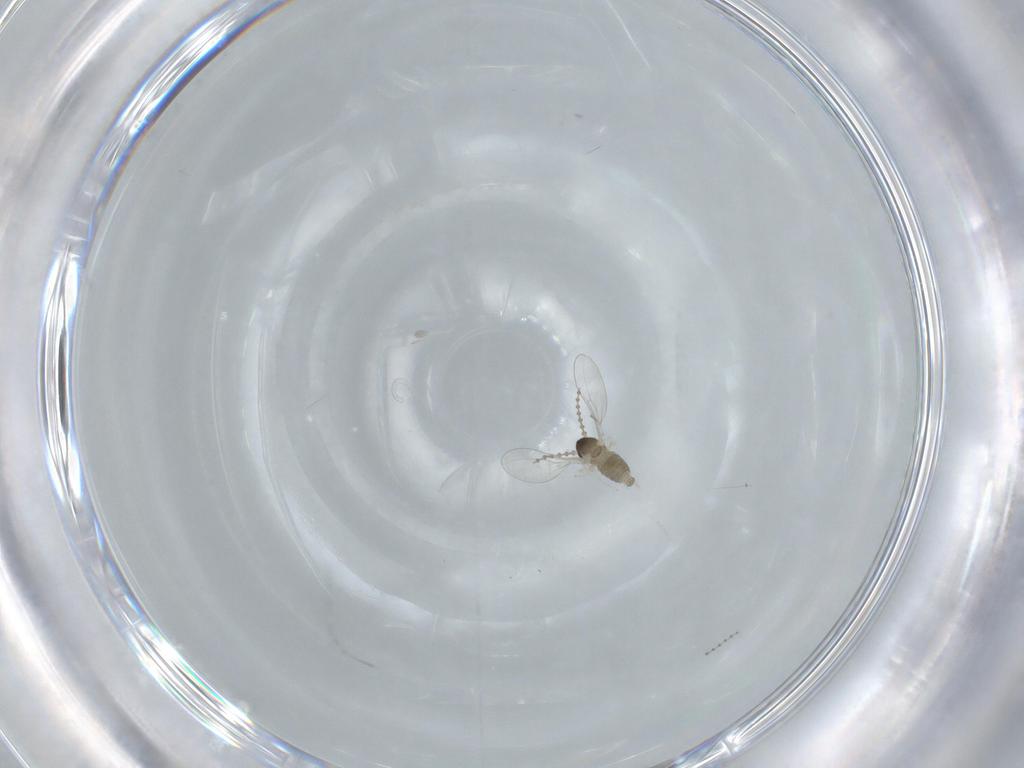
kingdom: Animalia
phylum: Arthropoda
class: Insecta
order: Diptera
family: Cecidomyiidae
